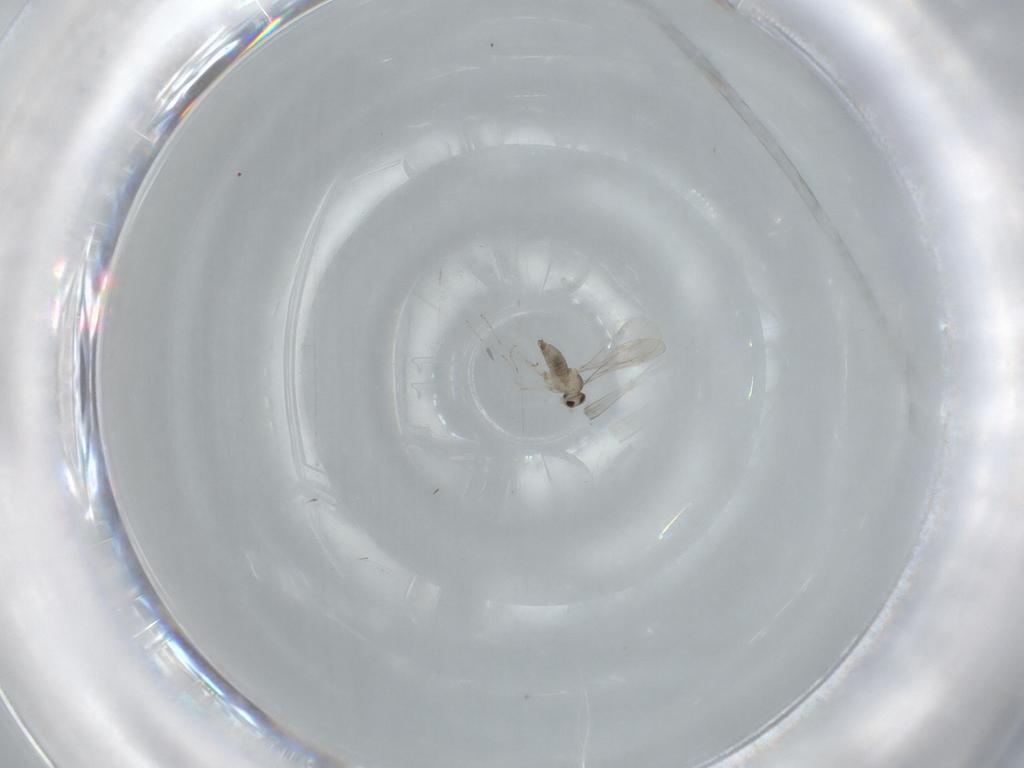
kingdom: Animalia
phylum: Arthropoda
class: Insecta
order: Diptera
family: Cecidomyiidae
